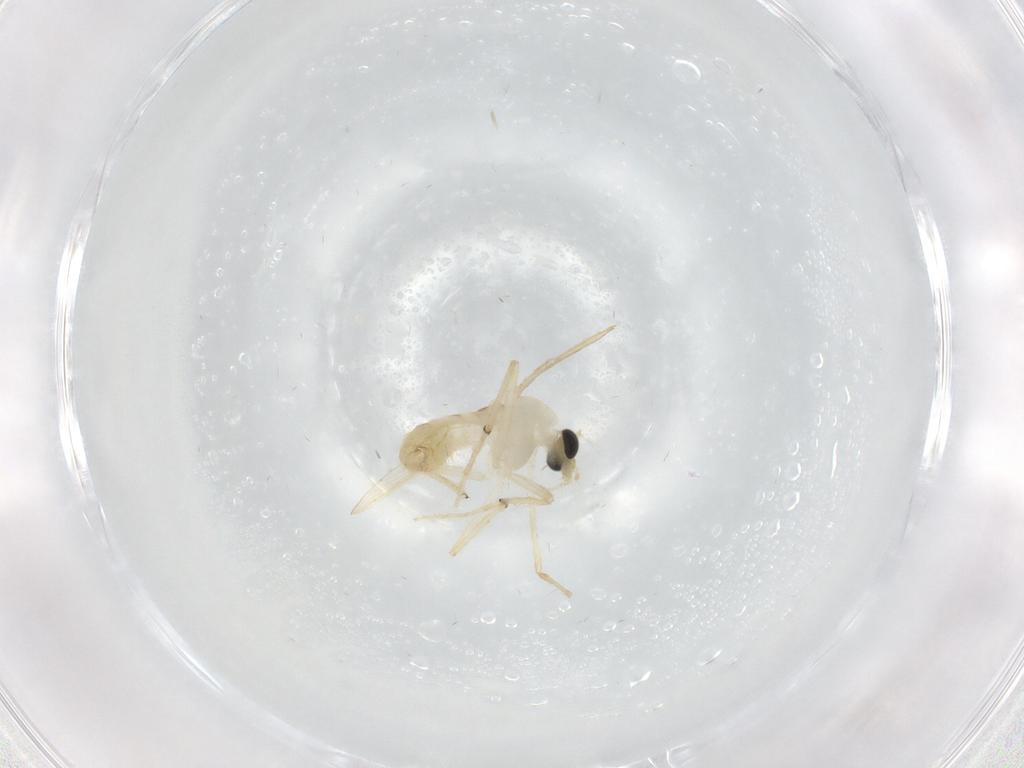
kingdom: Animalia
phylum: Arthropoda
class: Insecta
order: Diptera
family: Chironomidae
